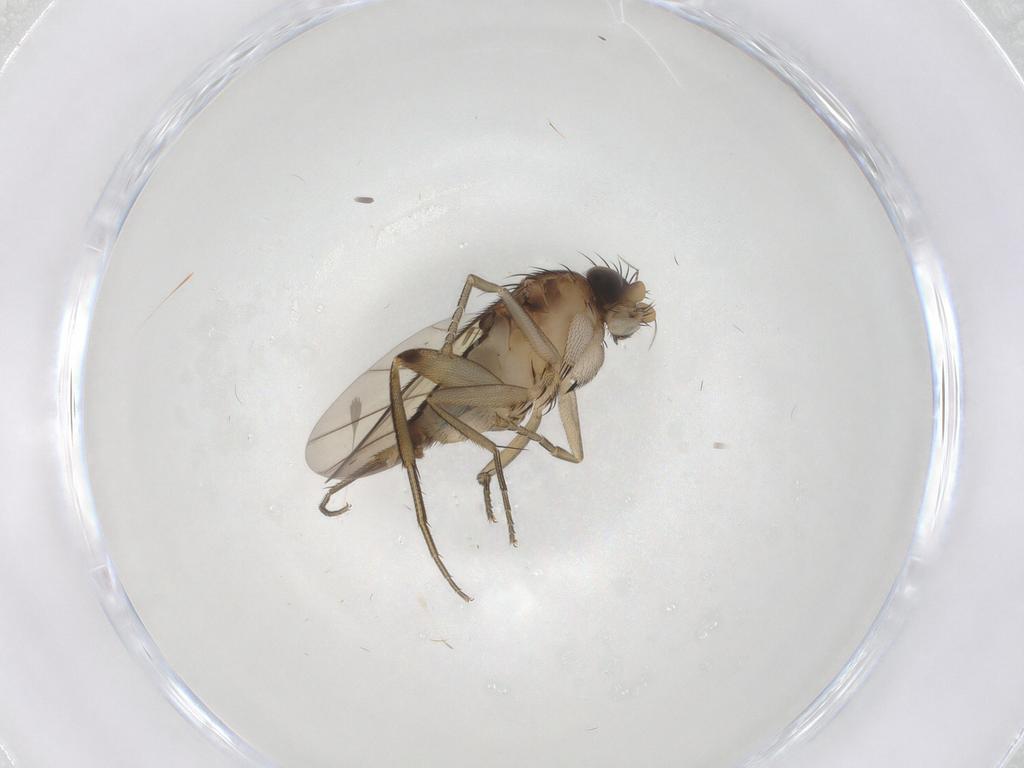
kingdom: Animalia
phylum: Arthropoda
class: Insecta
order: Diptera
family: Phoridae
